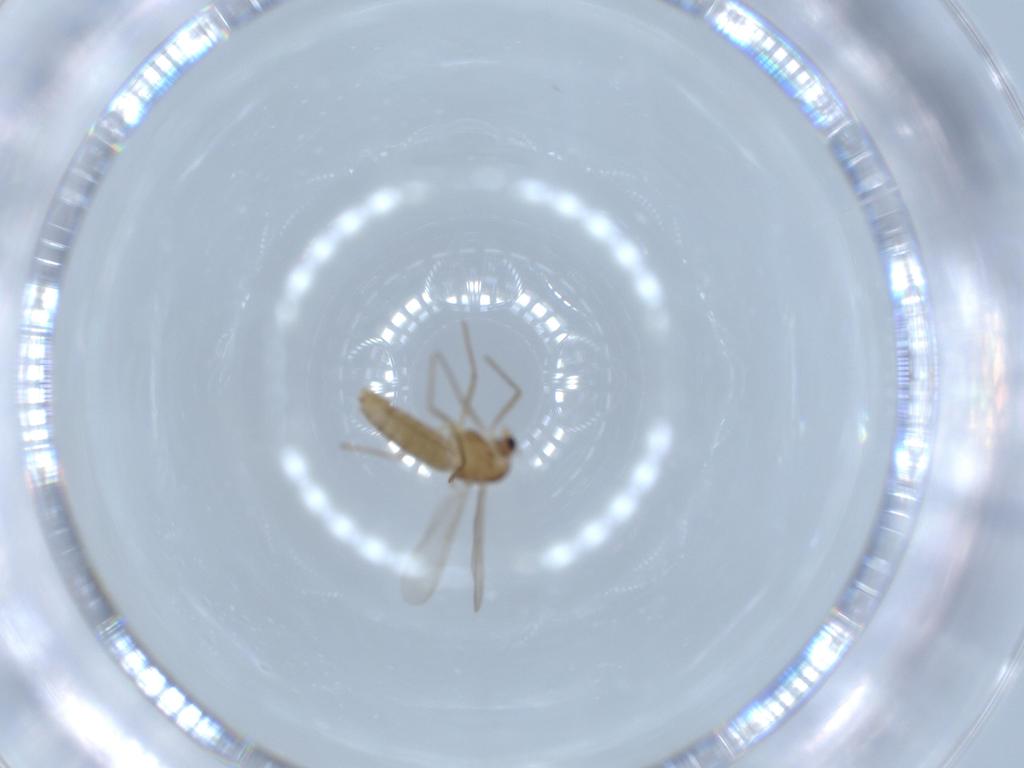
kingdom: Animalia
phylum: Arthropoda
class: Insecta
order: Diptera
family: Chironomidae
